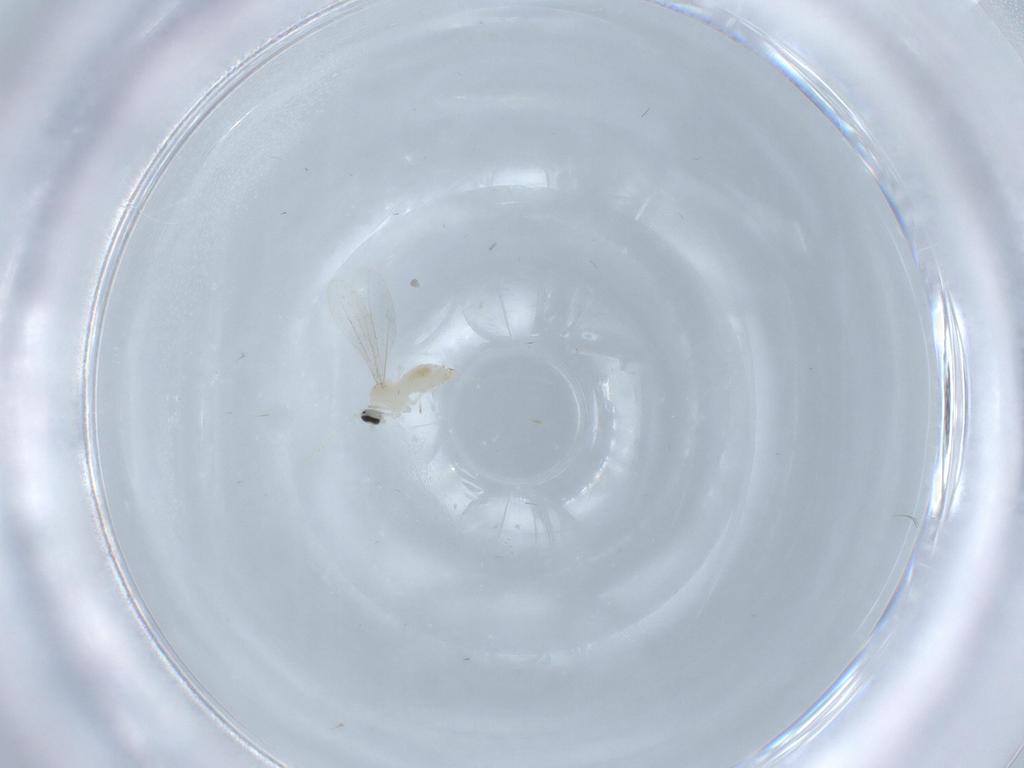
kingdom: Animalia
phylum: Arthropoda
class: Insecta
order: Diptera
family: Cecidomyiidae
